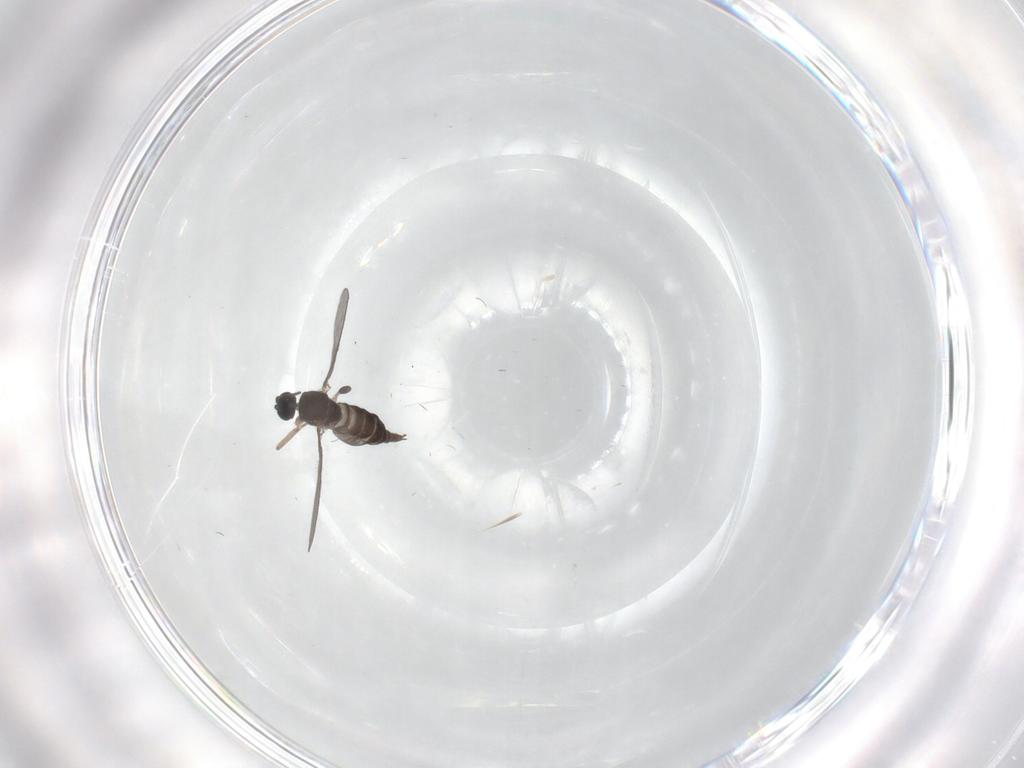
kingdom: Animalia
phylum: Arthropoda
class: Insecta
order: Diptera
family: Sciaridae
